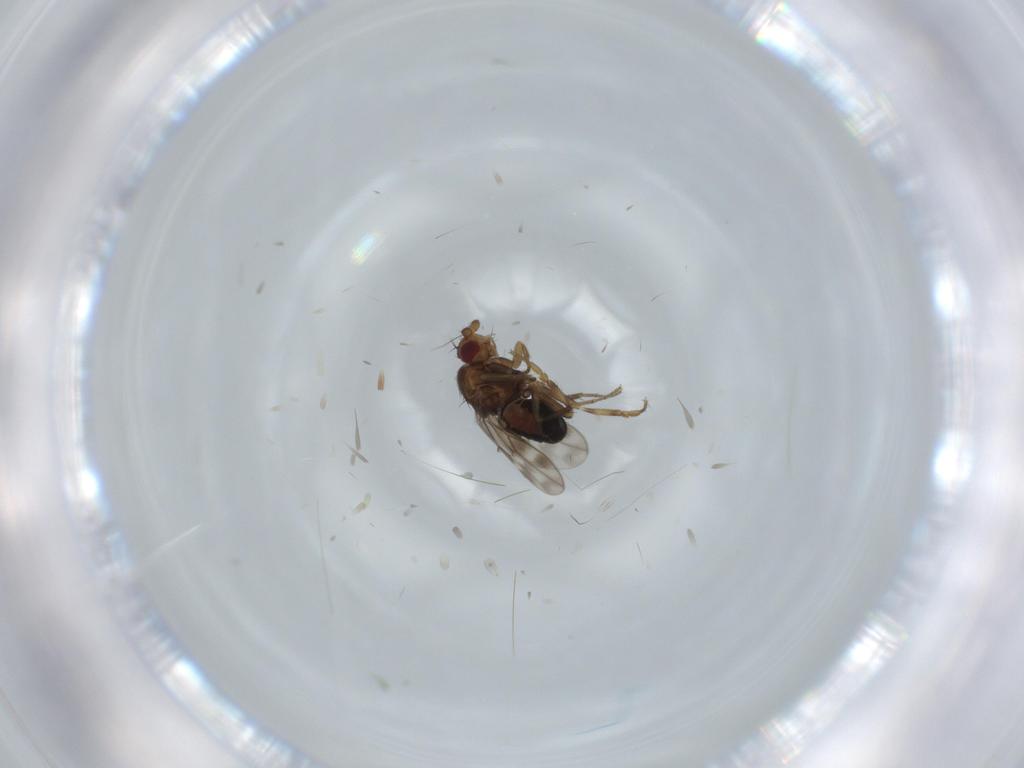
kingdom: Animalia
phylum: Arthropoda
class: Insecta
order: Diptera
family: Sphaeroceridae
